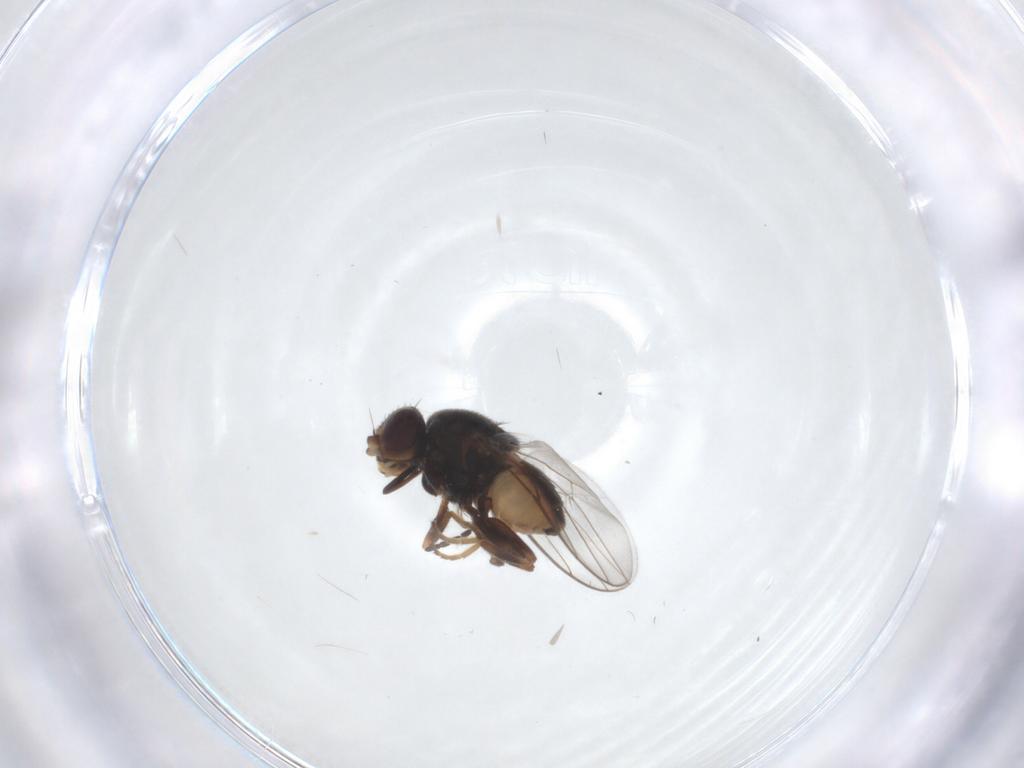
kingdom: Animalia
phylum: Arthropoda
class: Insecta
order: Diptera
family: Chloropidae
